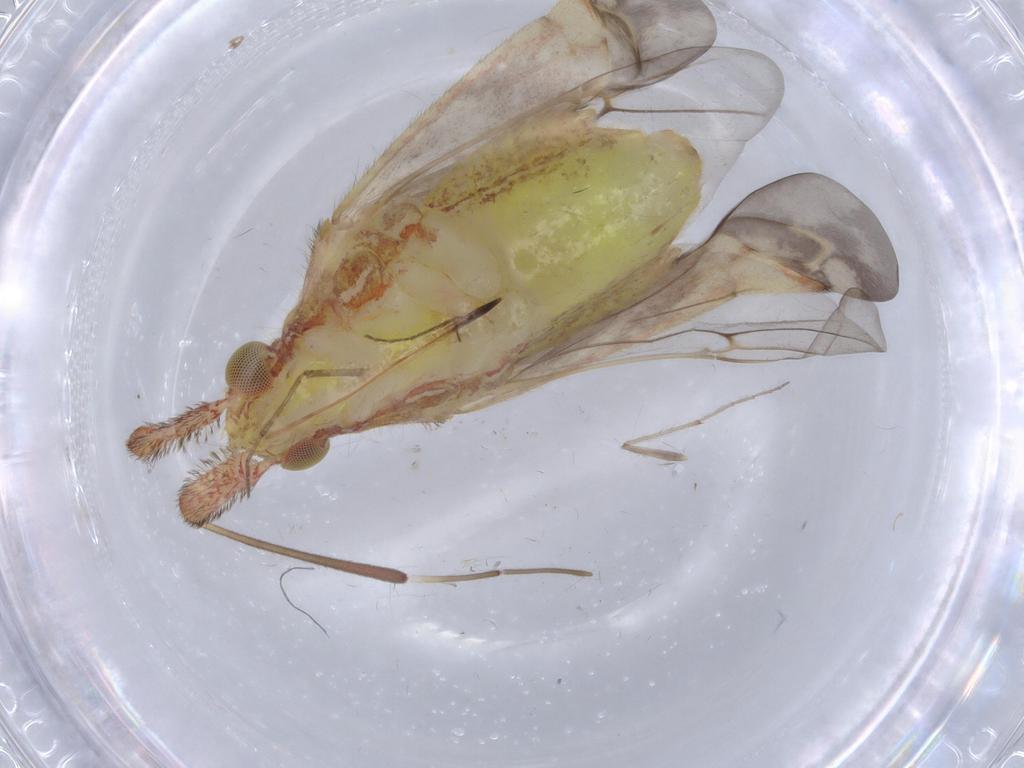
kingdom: Animalia
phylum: Arthropoda
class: Insecta
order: Hemiptera
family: Miridae
